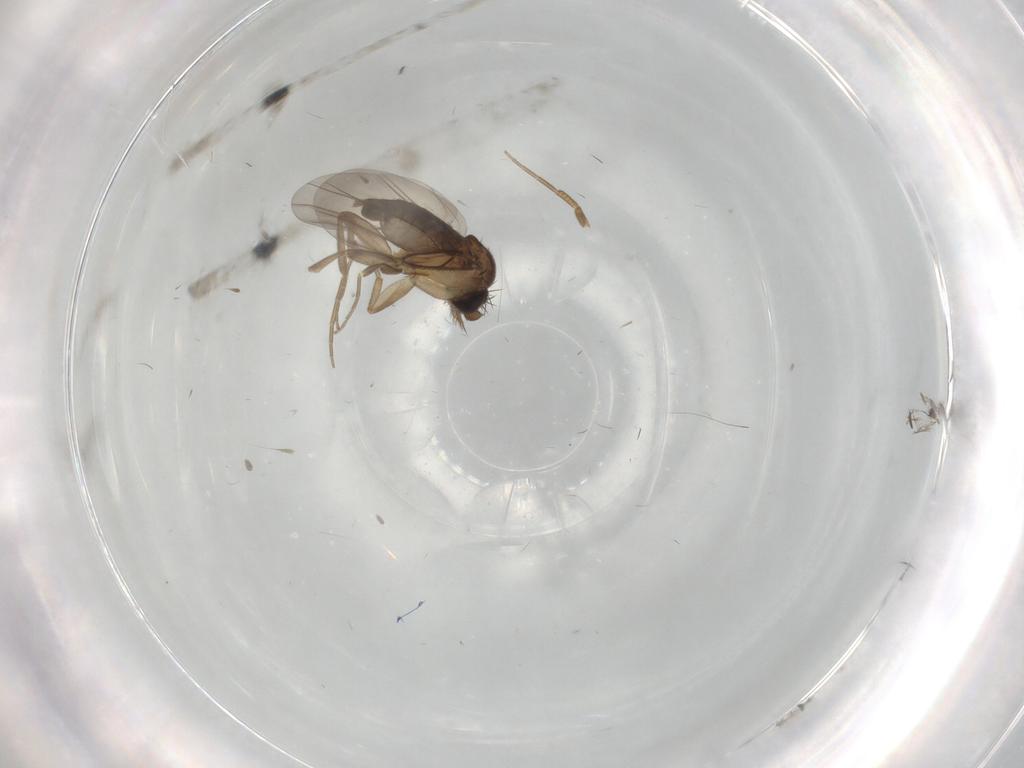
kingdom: Animalia
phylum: Arthropoda
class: Insecta
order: Diptera
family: Phoridae
